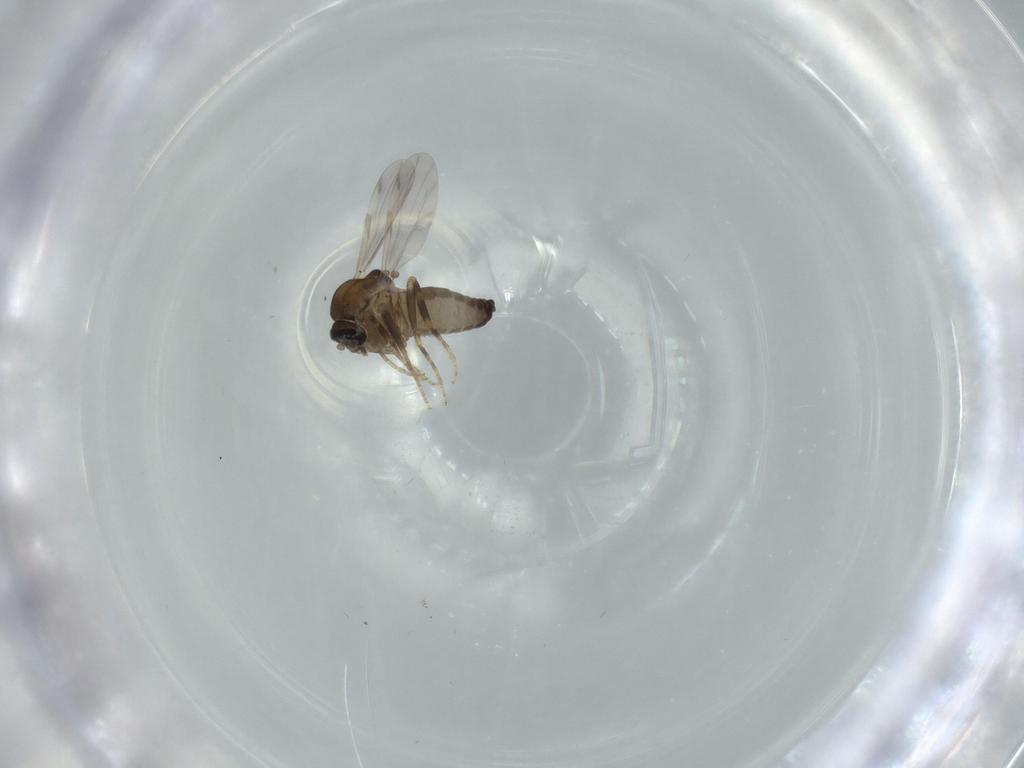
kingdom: Animalia
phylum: Arthropoda
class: Insecta
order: Diptera
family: Ceratopogonidae
